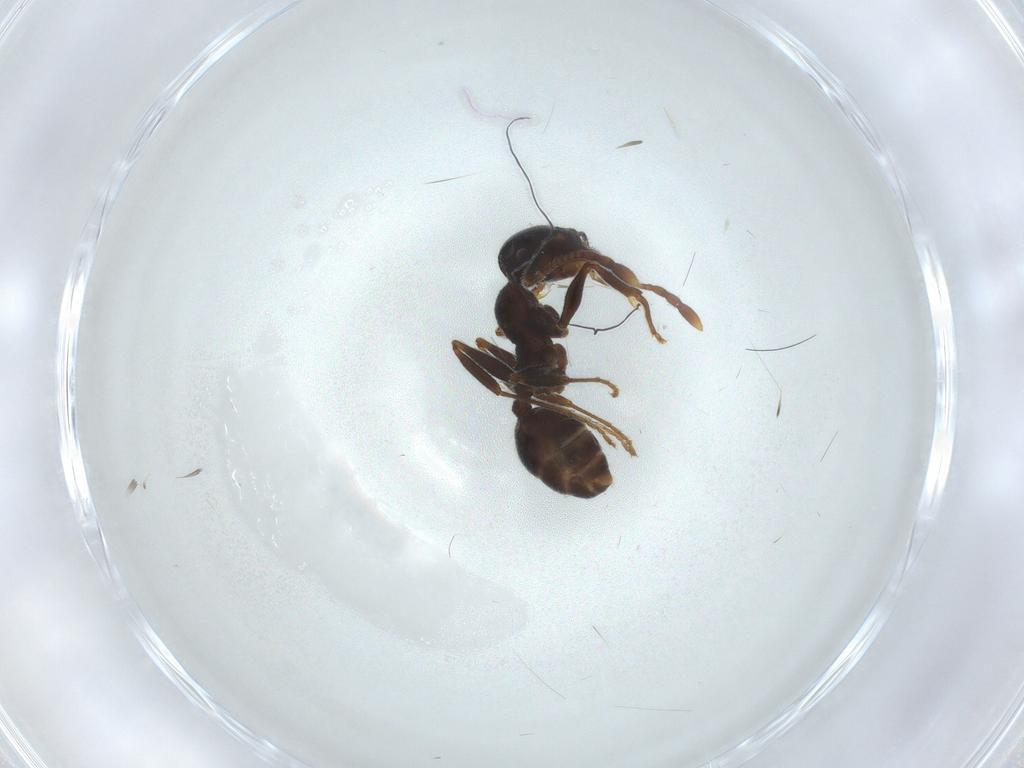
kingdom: Animalia
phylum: Arthropoda
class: Insecta
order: Hymenoptera
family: Formicidae
